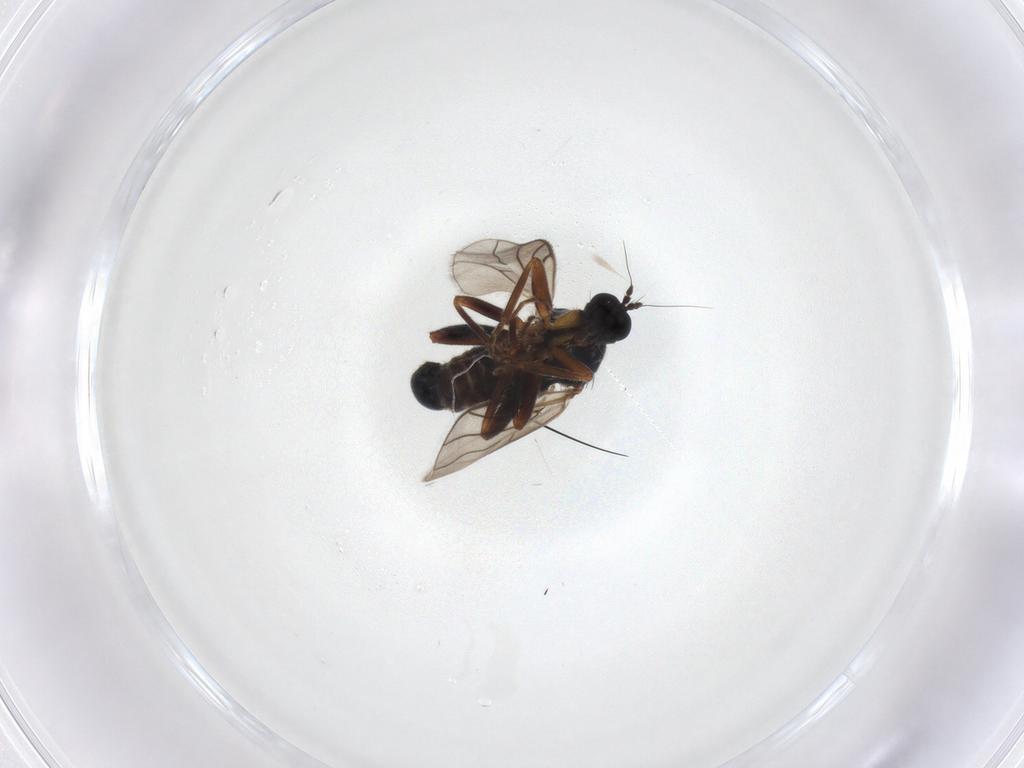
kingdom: Animalia
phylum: Arthropoda
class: Insecta
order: Diptera
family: Hybotidae
